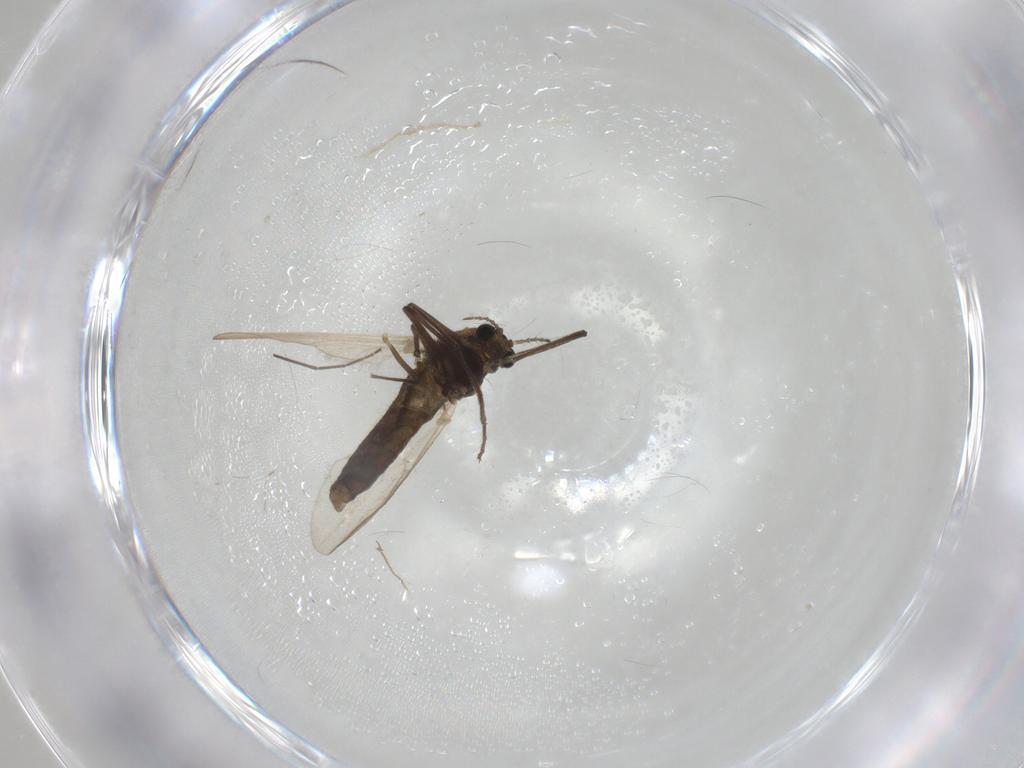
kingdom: Animalia
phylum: Arthropoda
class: Insecta
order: Diptera
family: Chironomidae
